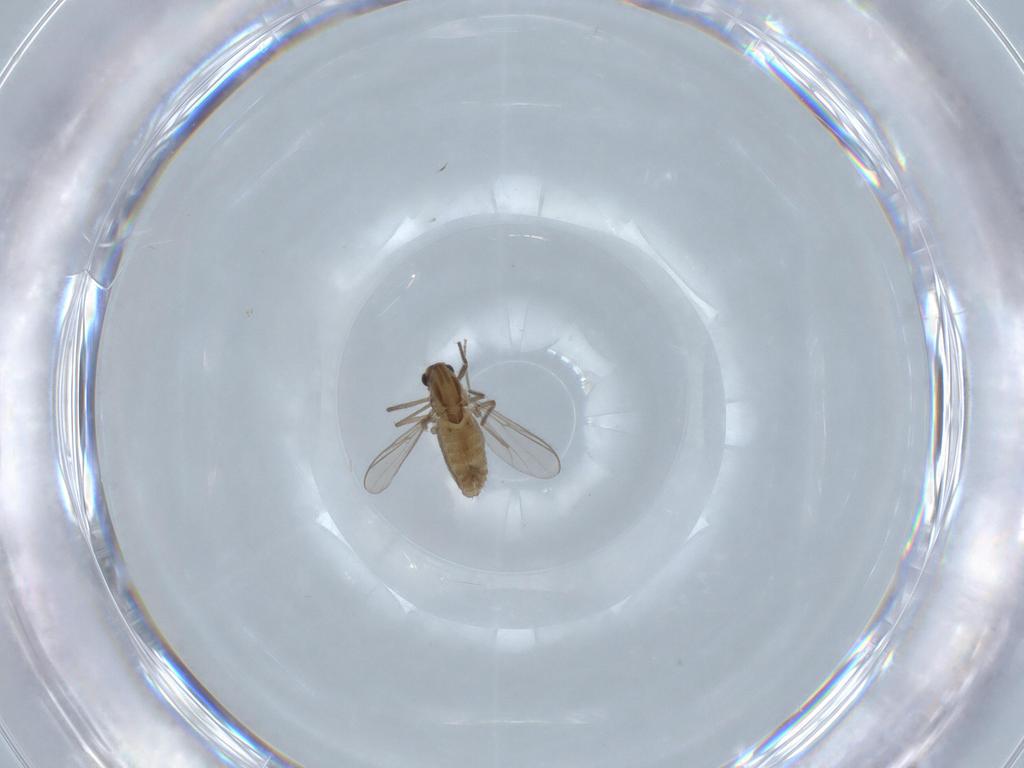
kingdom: Animalia
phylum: Arthropoda
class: Insecta
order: Diptera
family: Chironomidae
